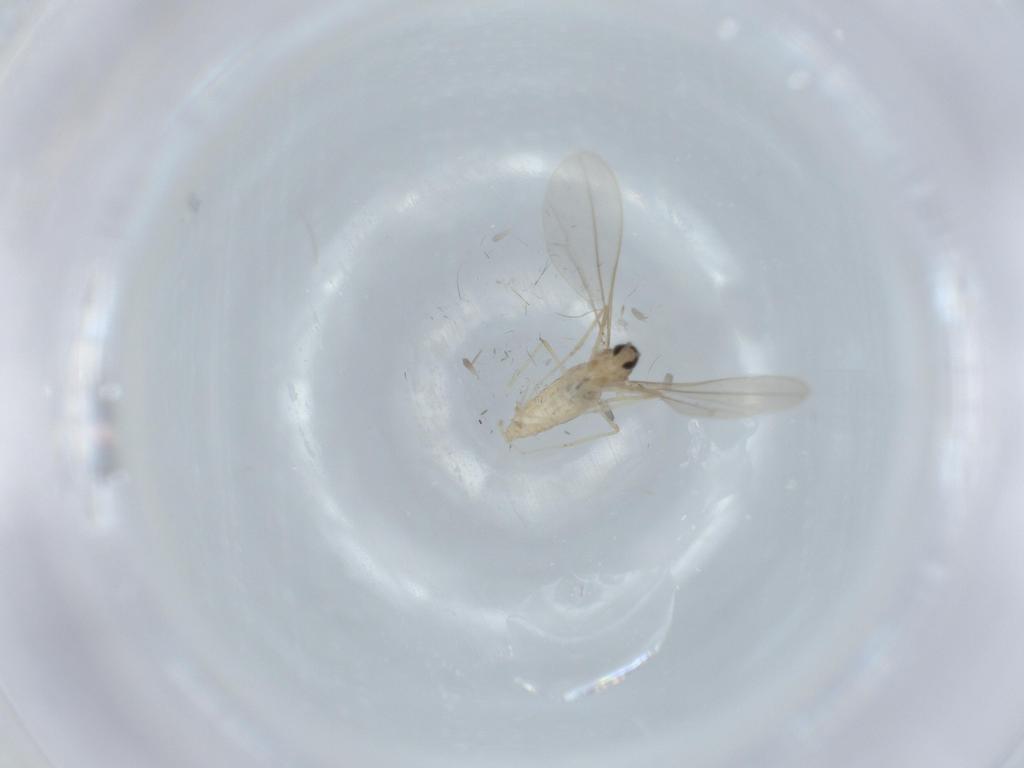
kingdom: Animalia
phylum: Arthropoda
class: Insecta
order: Diptera
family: Cecidomyiidae
